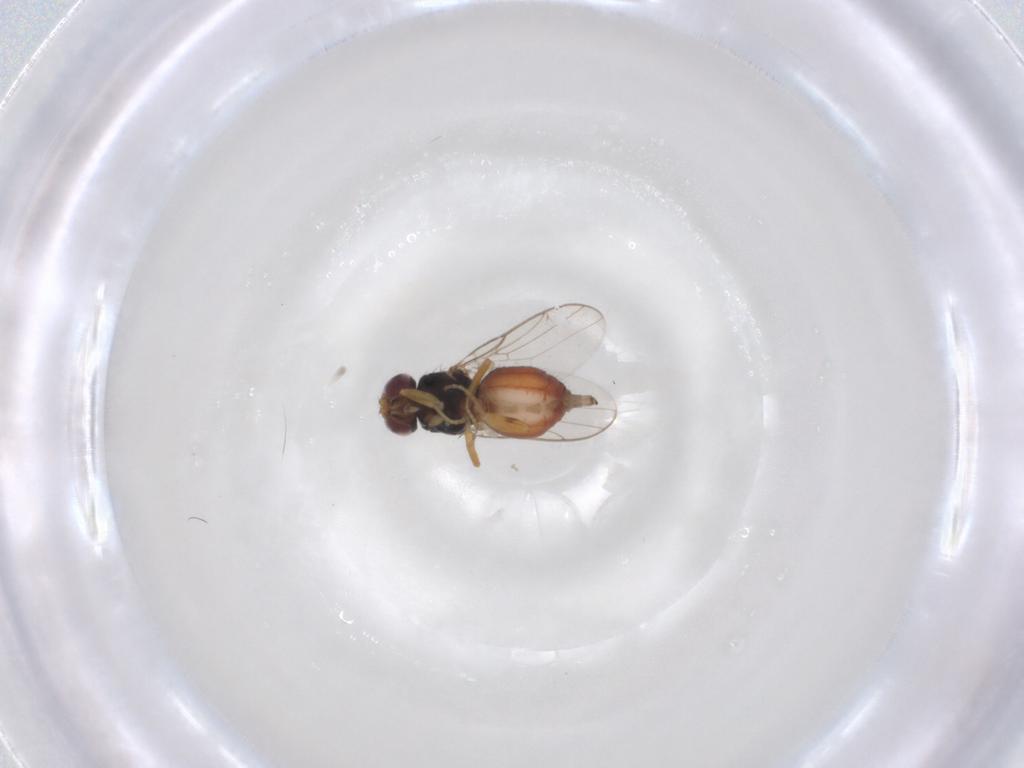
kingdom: Animalia
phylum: Arthropoda
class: Insecta
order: Diptera
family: Chloropidae
